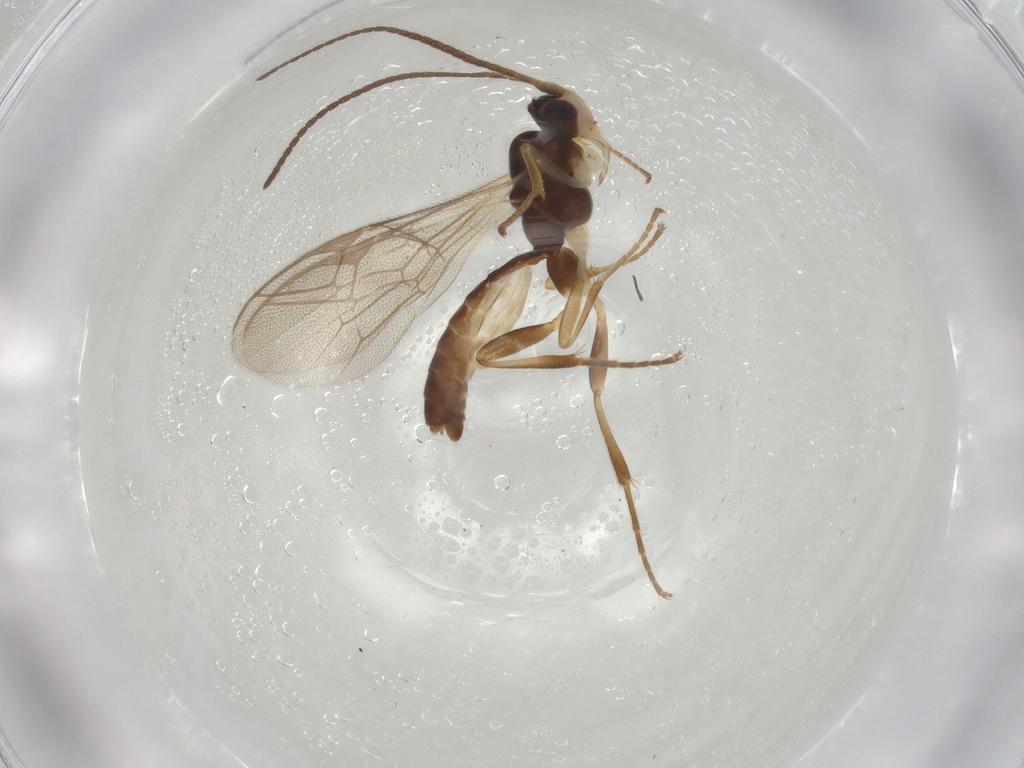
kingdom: Animalia
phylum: Arthropoda
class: Insecta
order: Hymenoptera
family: Ichneumonidae
